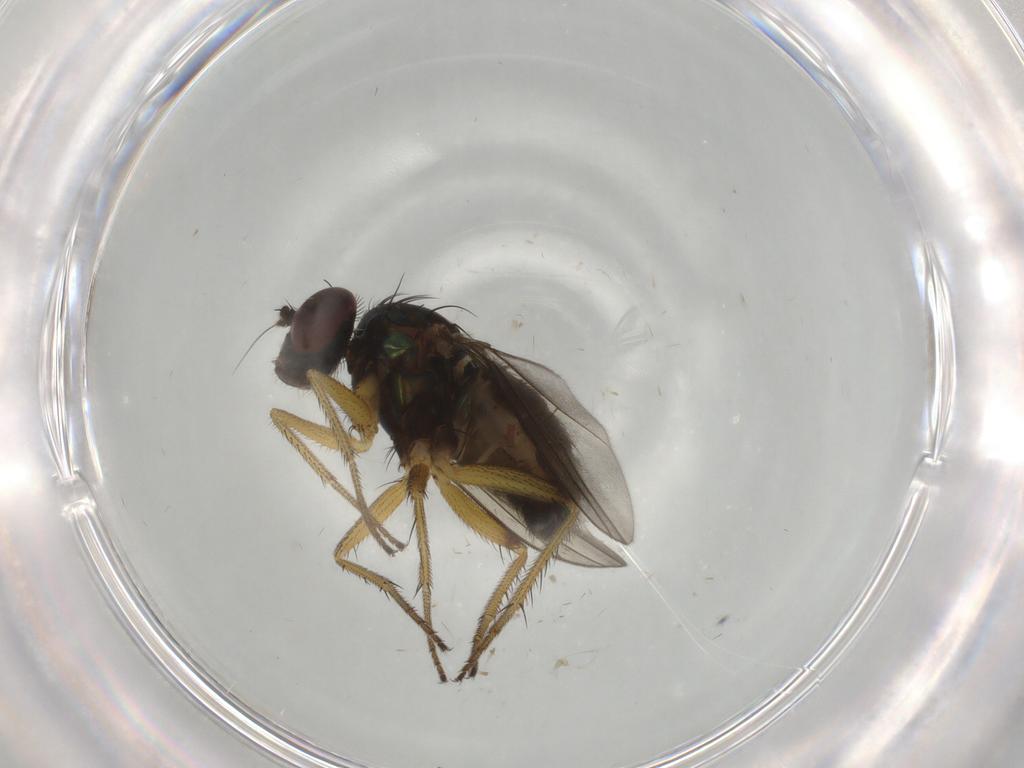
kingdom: Animalia
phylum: Arthropoda
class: Insecta
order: Diptera
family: Dolichopodidae
